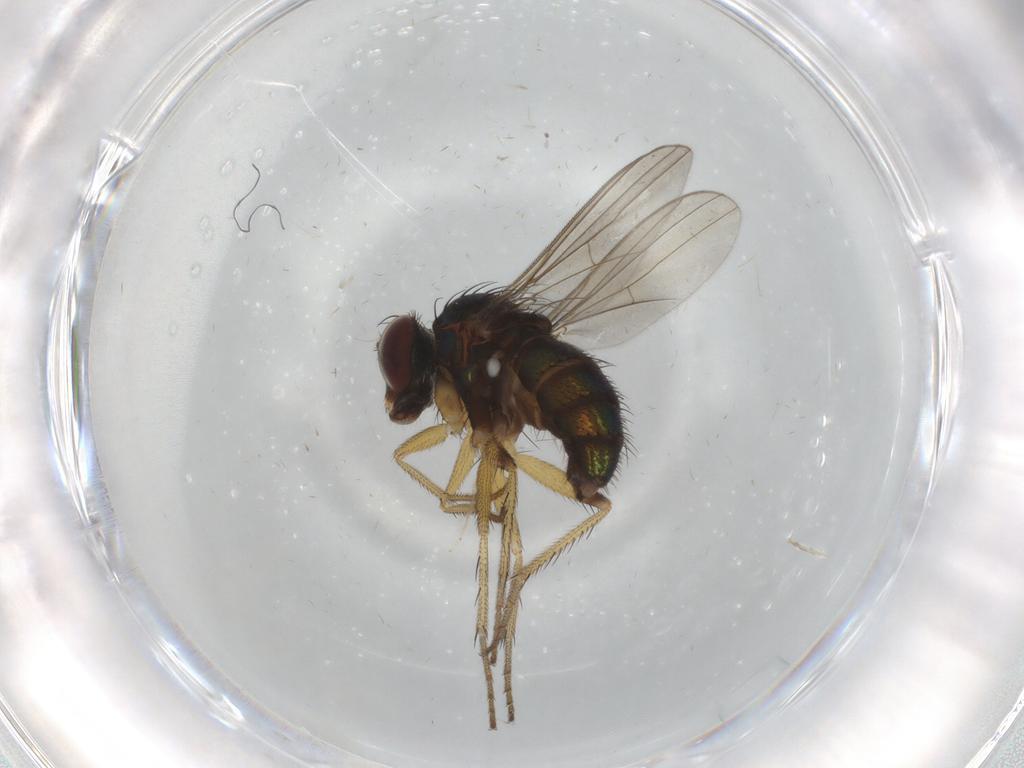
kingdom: Animalia
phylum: Arthropoda
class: Insecta
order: Diptera
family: Dolichopodidae
